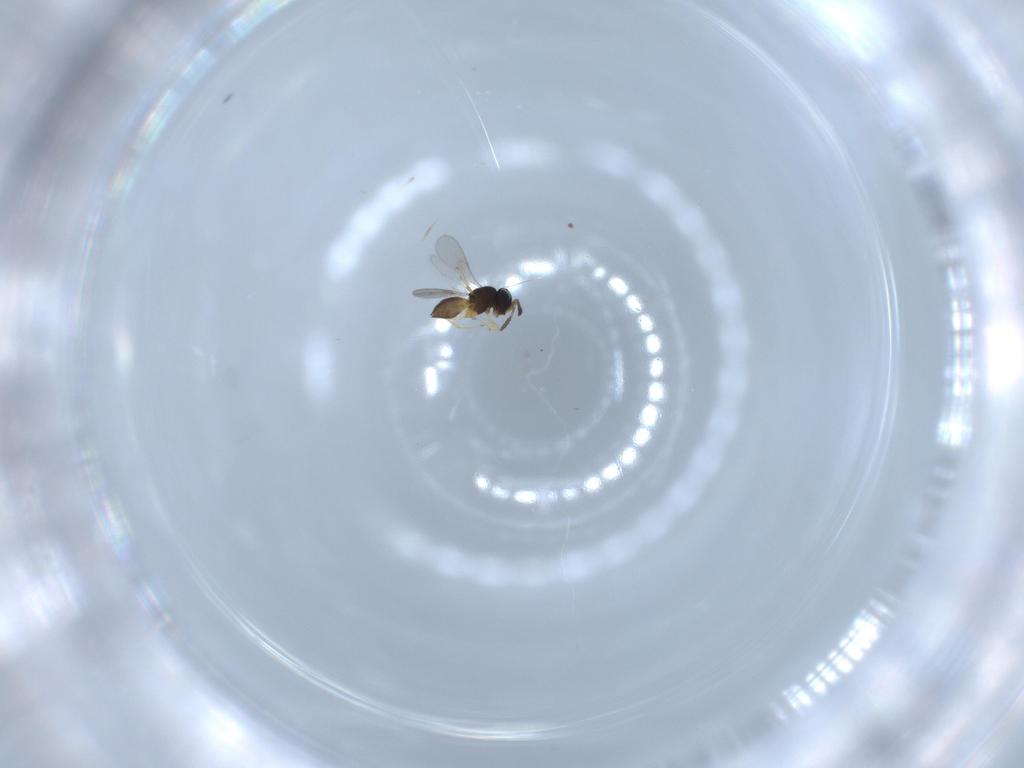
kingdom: Animalia
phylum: Arthropoda
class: Insecta
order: Hymenoptera
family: Scelionidae
